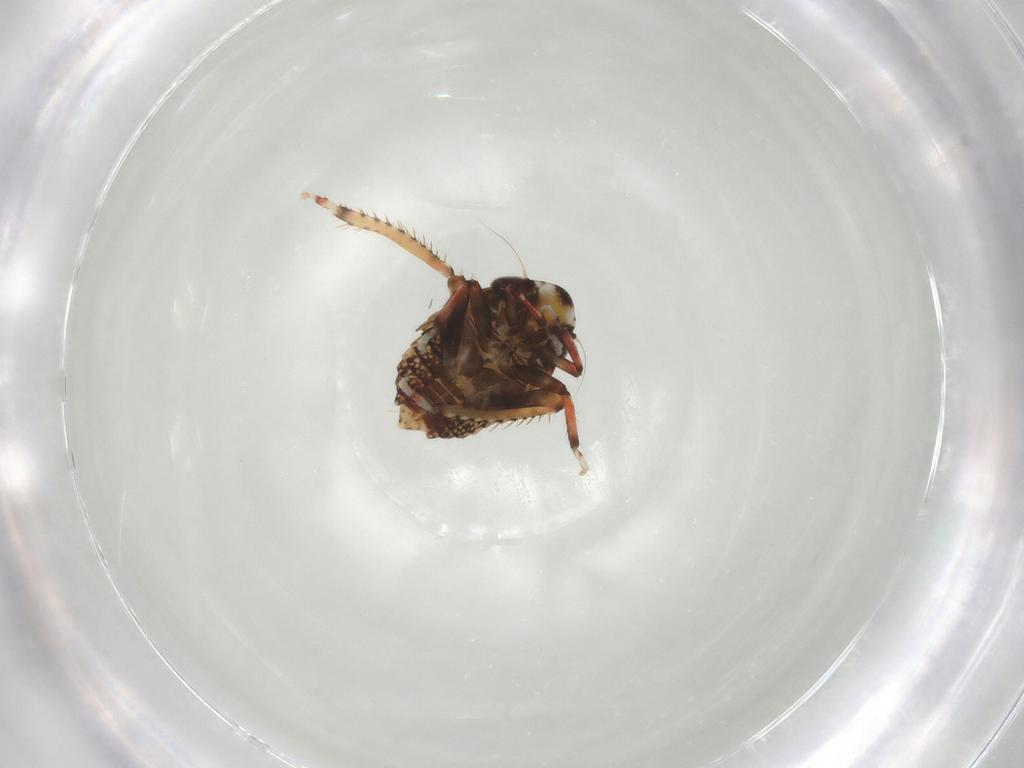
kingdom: Animalia
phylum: Arthropoda
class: Insecta
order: Hemiptera
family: Cicadellidae
